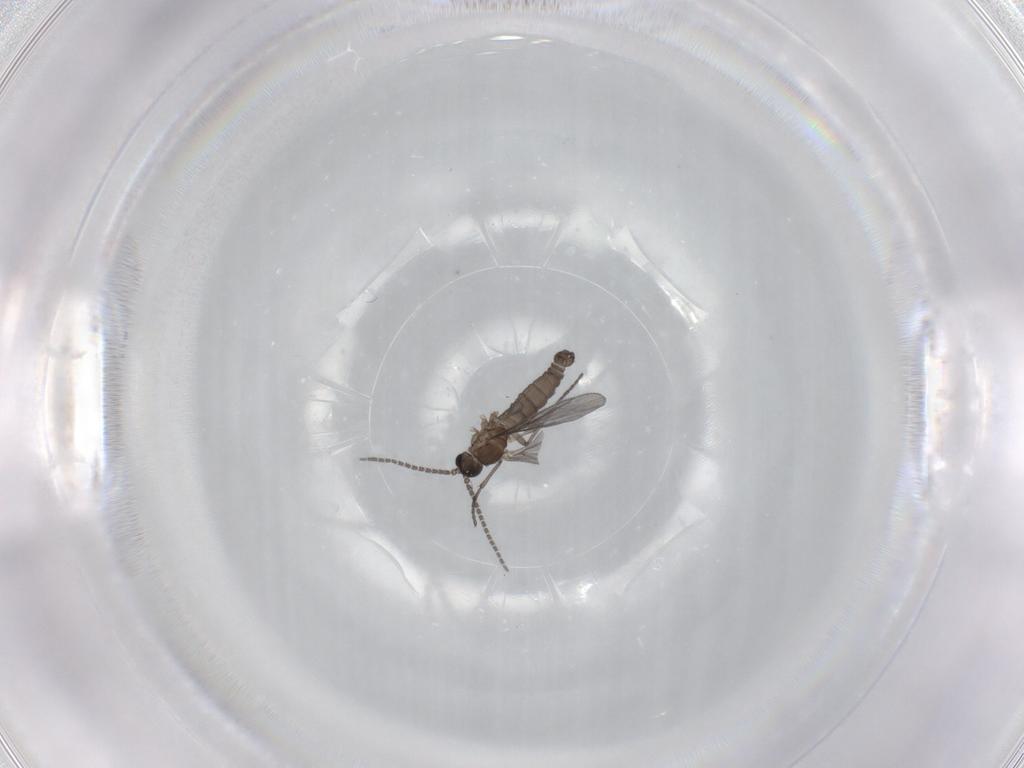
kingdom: Animalia
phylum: Arthropoda
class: Insecta
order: Diptera
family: Sciaridae
